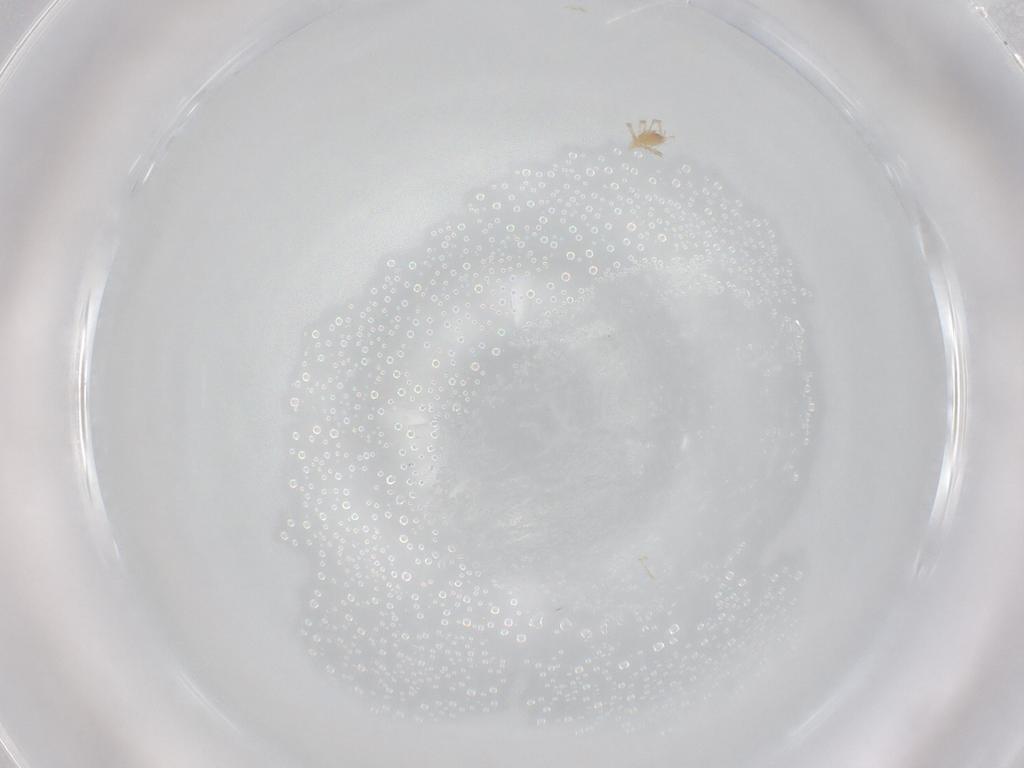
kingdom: Animalia
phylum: Arthropoda
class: Arachnida
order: Trombidiformes
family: Erythraeidae
